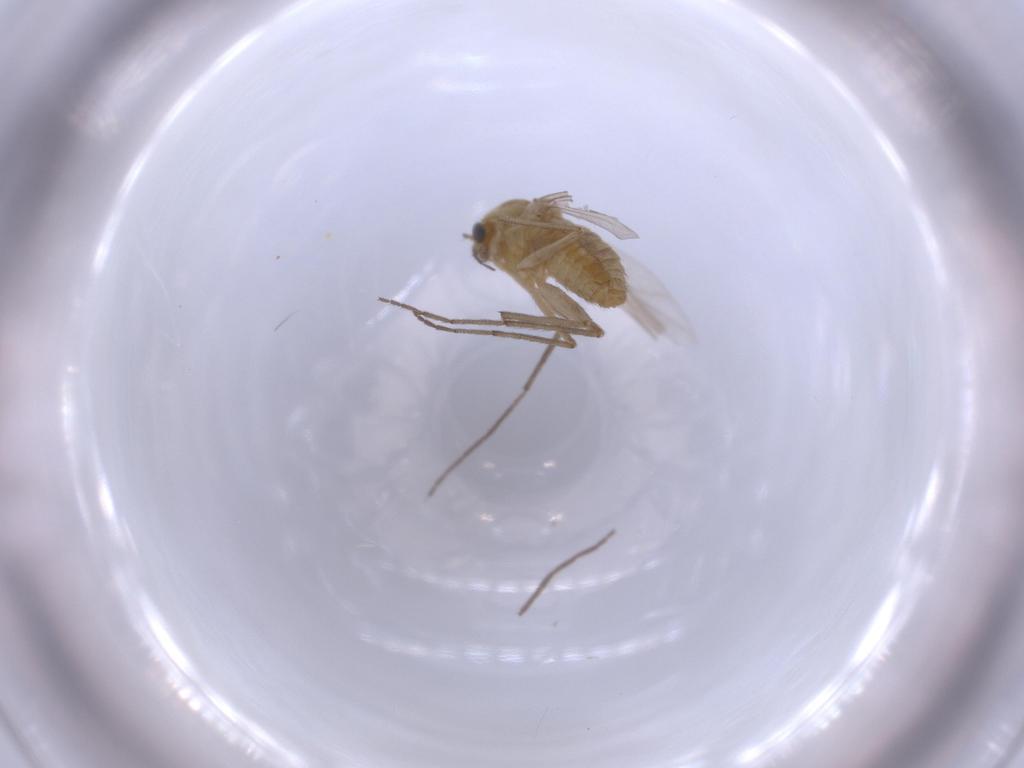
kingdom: Animalia
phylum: Arthropoda
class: Insecta
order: Diptera
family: Chironomidae
